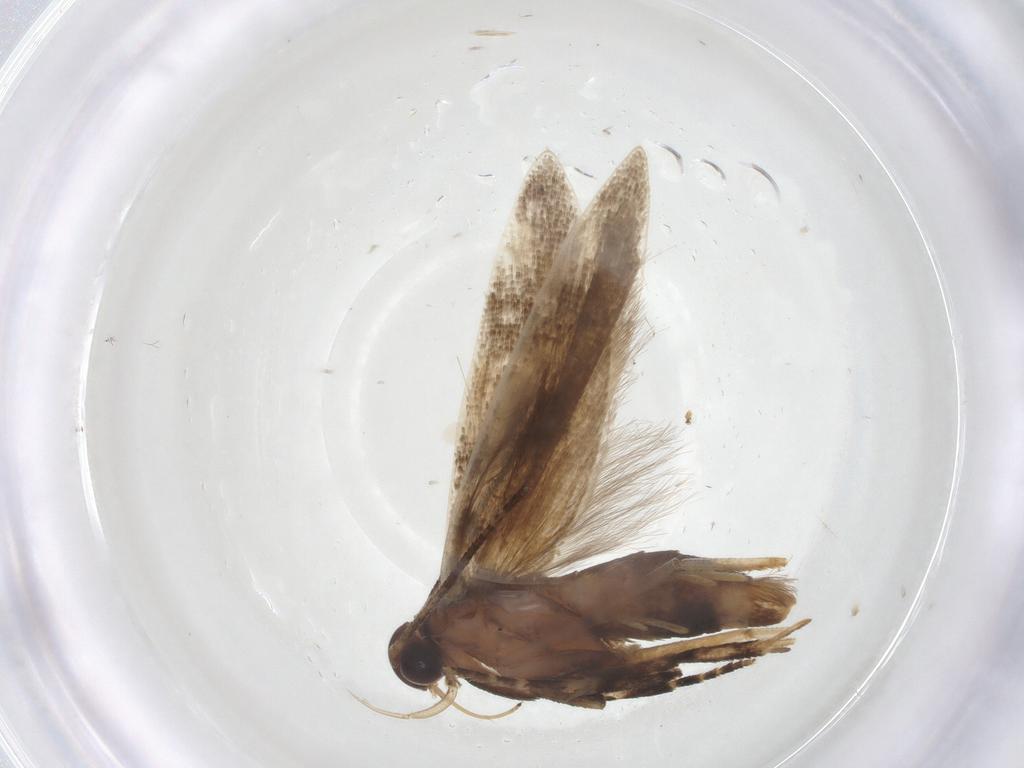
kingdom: Animalia
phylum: Arthropoda
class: Insecta
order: Lepidoptera
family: Gelechiidae
